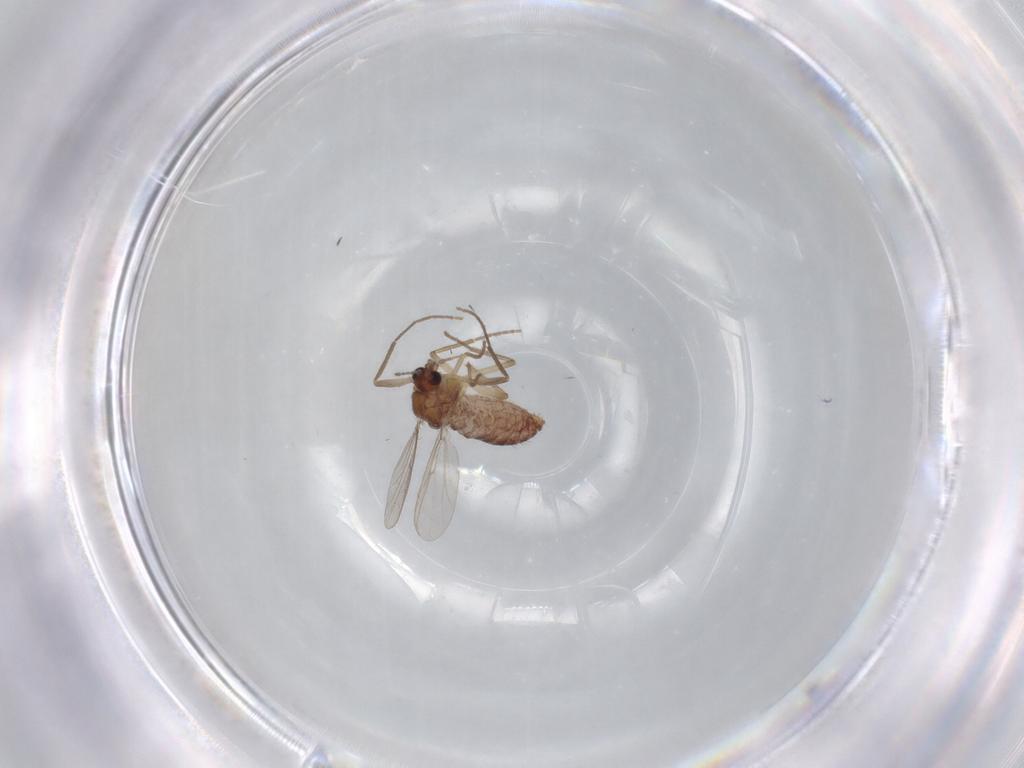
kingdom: Animalia
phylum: Arthropoda
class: Insecta
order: Diptera
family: Chironomidae
